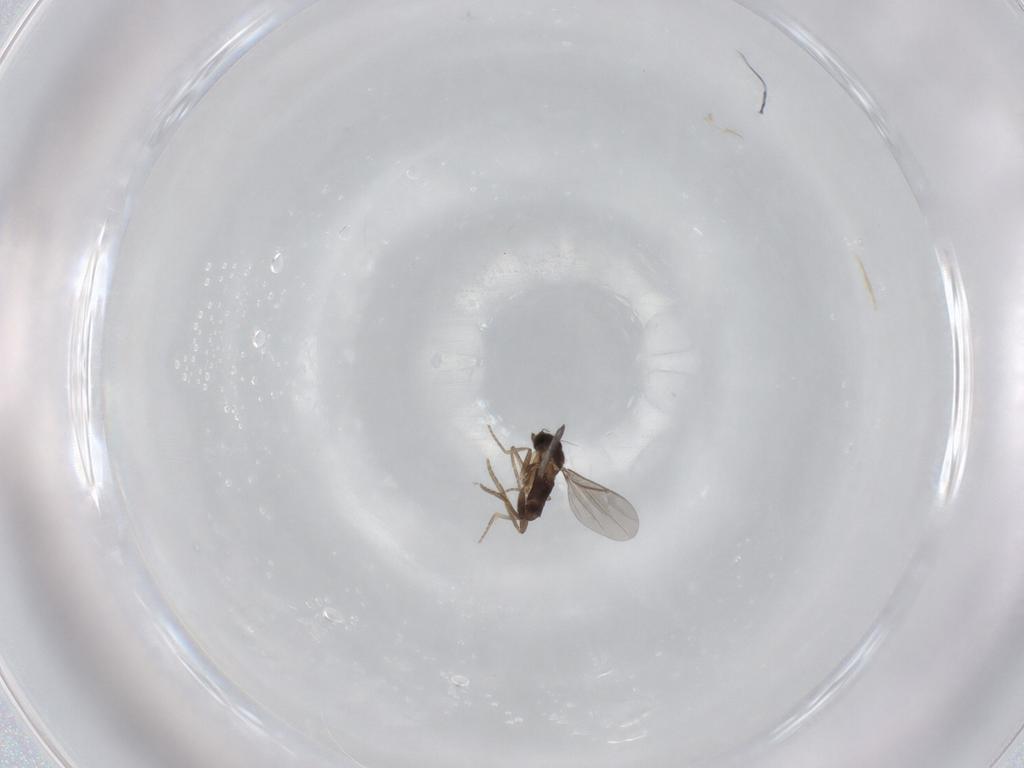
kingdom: Animalia
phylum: Arthropoda
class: Insecta
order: Diptera
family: Sciaridae
